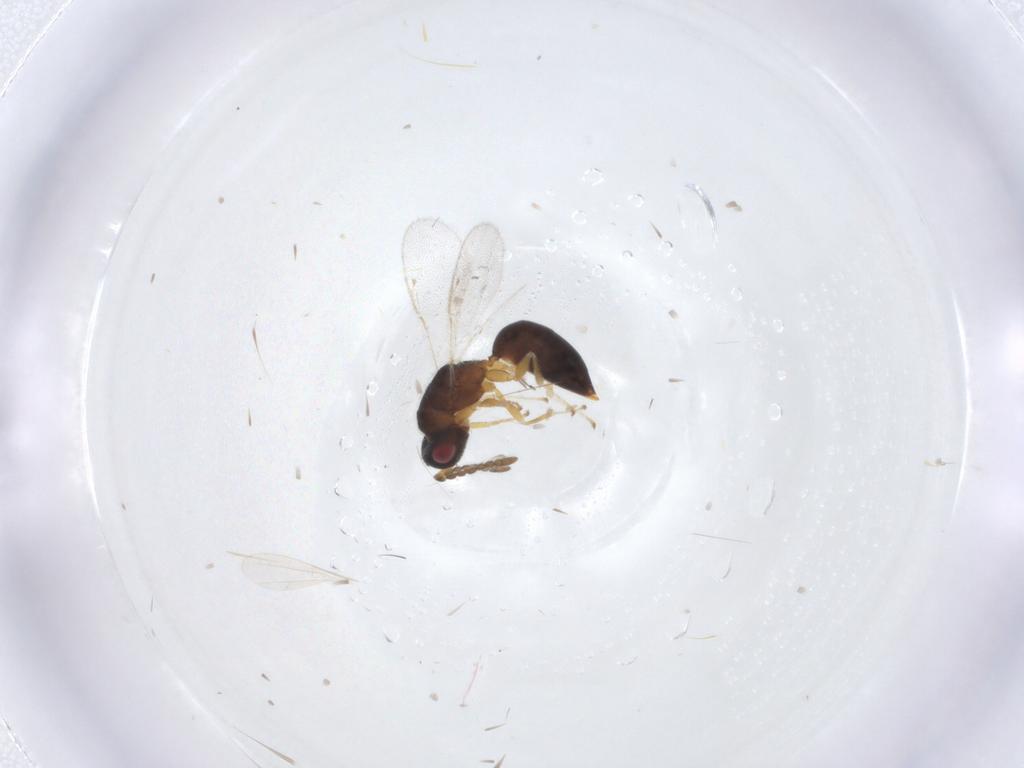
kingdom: Animalia
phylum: Arthropoda
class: Insecta
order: Hymenoptera
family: Eurytomidae
